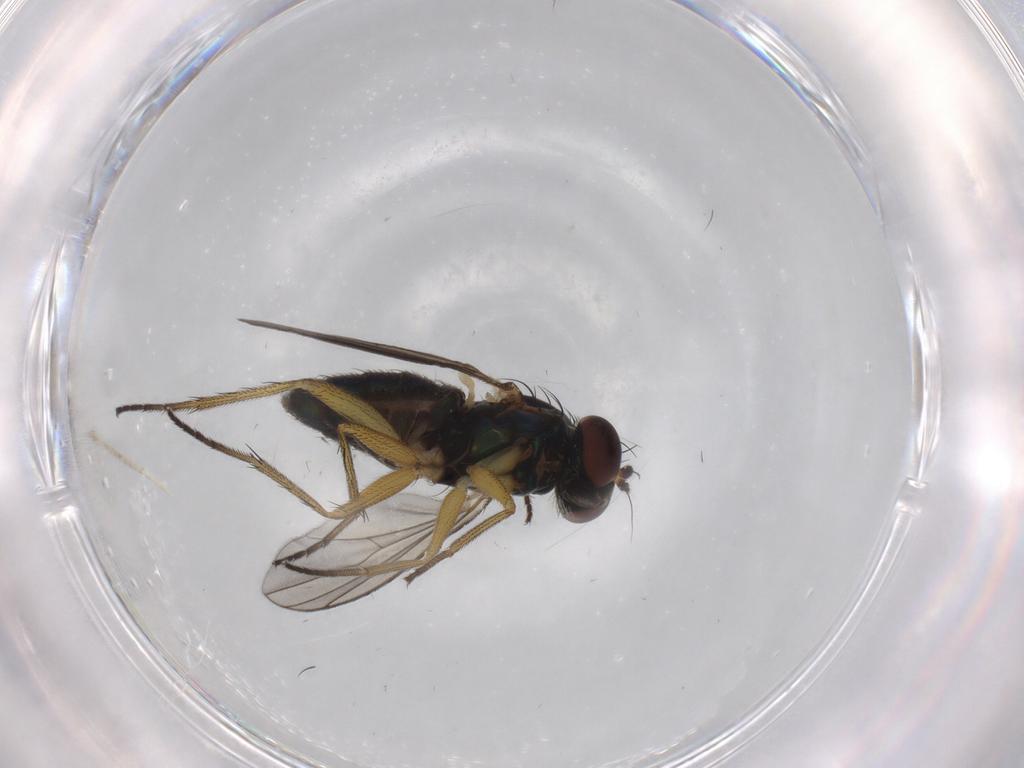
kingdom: Animalia
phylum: Arthropoda
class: Insecta
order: Diptera
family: Dolichopodidae
